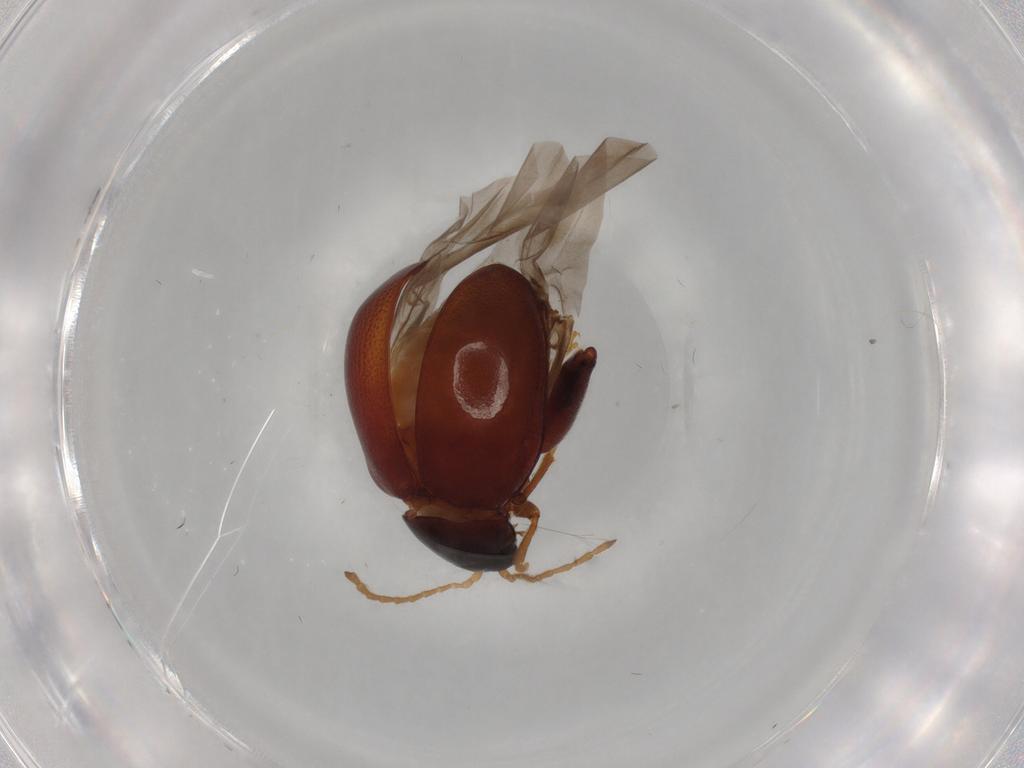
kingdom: Animalia
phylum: Arthropoda
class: Insecta
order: Coleoptera
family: Chrysomelidae
